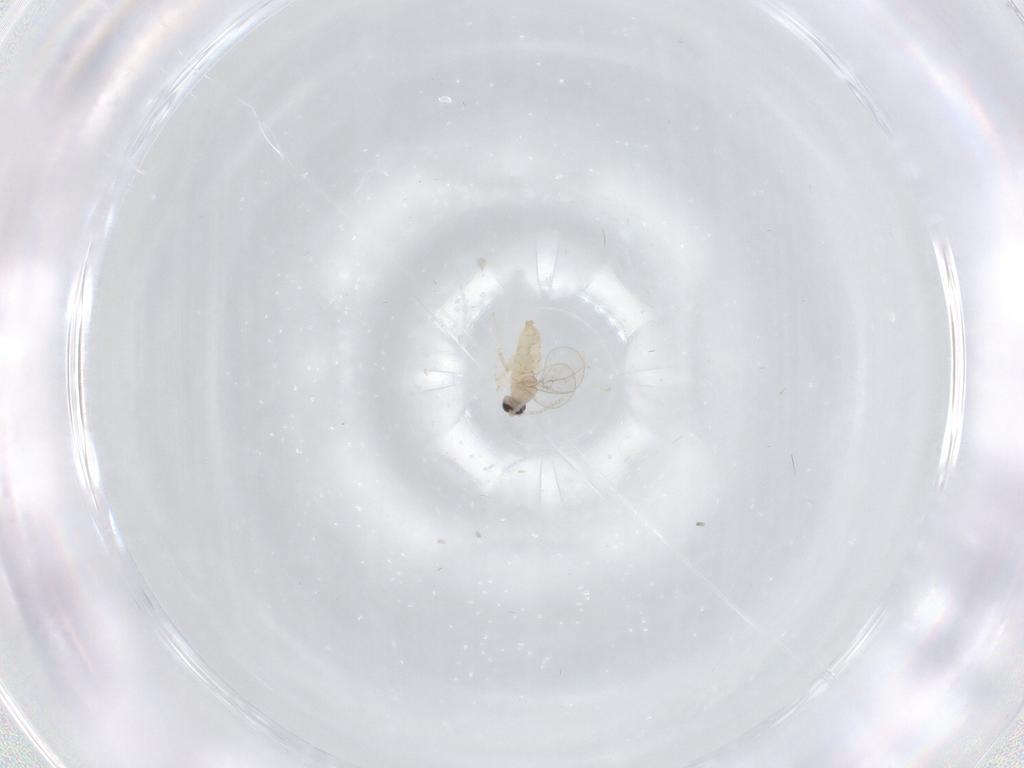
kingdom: Animalia
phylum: Arthropoda
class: Insecta
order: Diptera
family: Cecidomyiidae
